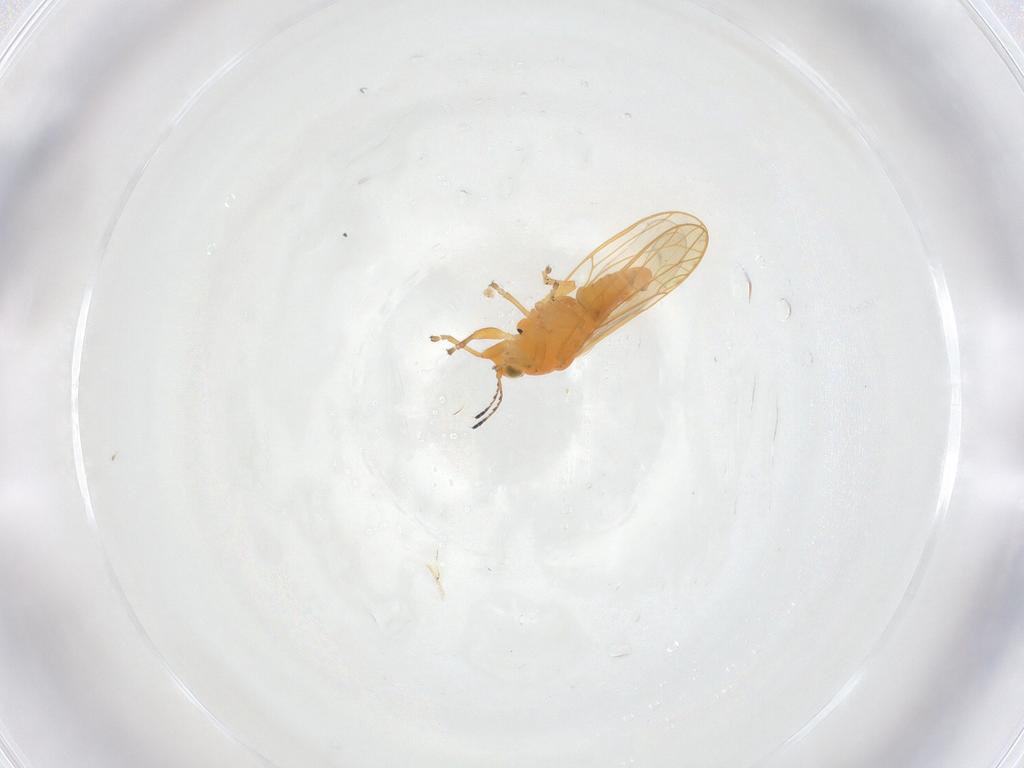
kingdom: Animalia
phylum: Arthropoda
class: Insecta
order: Hemiptera
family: Triozidae
